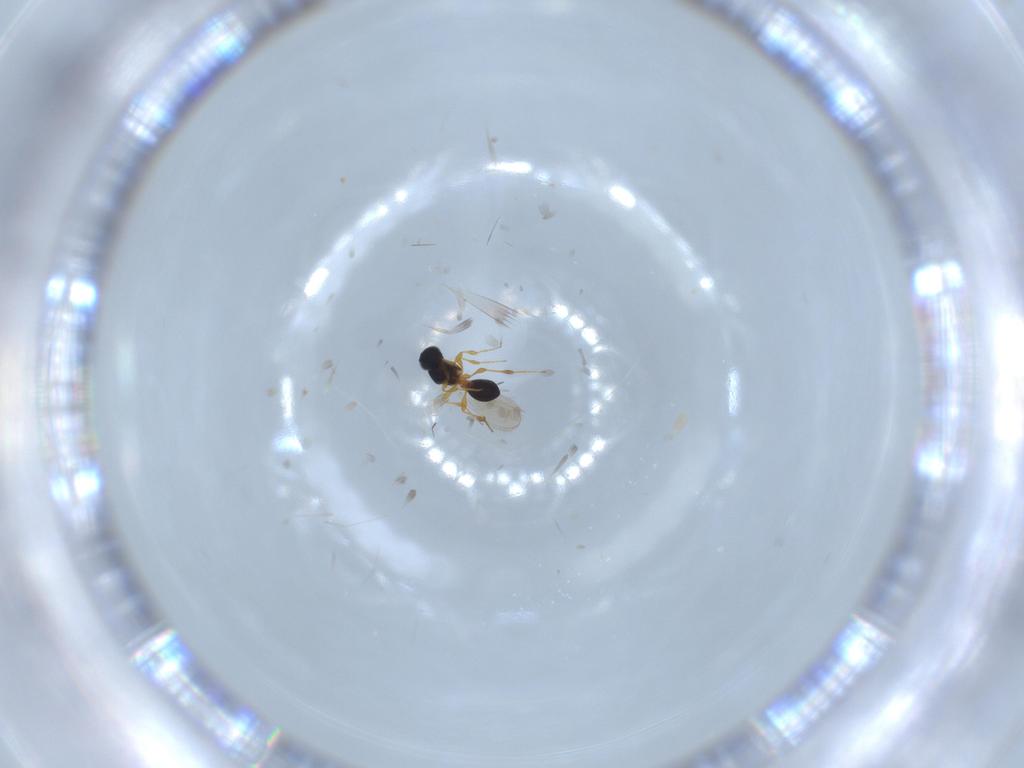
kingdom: Animalia
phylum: Arthropoda
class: Insecta
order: Hymenoptera
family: Platygastridae
